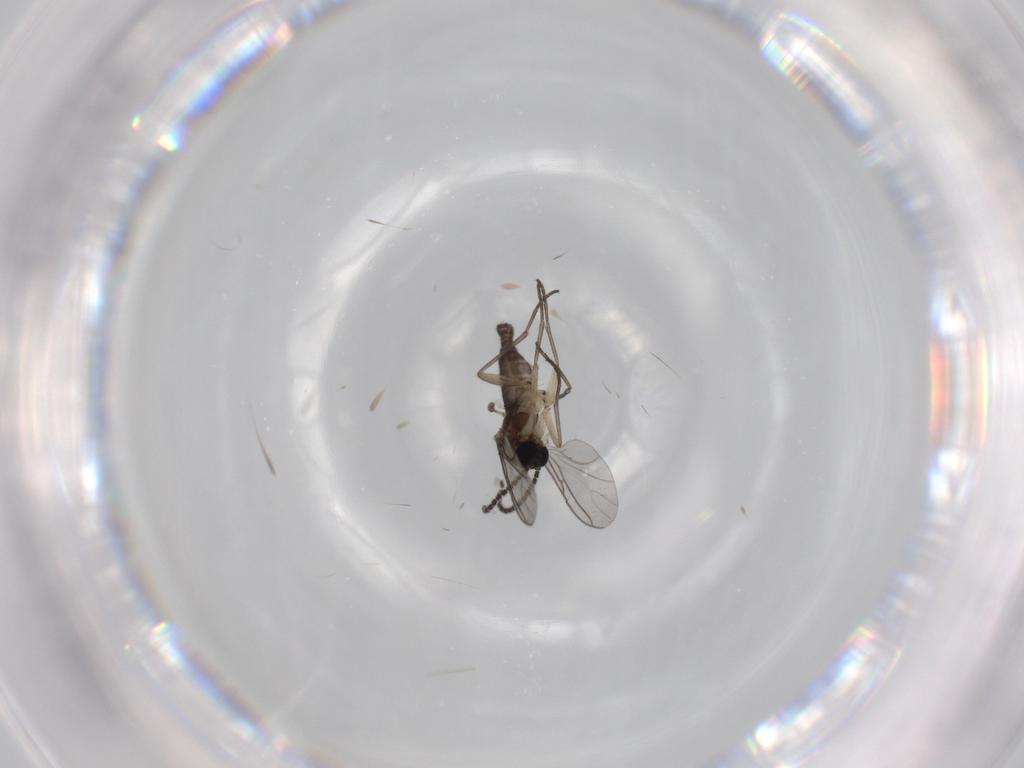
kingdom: Animalia
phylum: Arthropoda
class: Insecta
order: Diptera
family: Sciaridae
